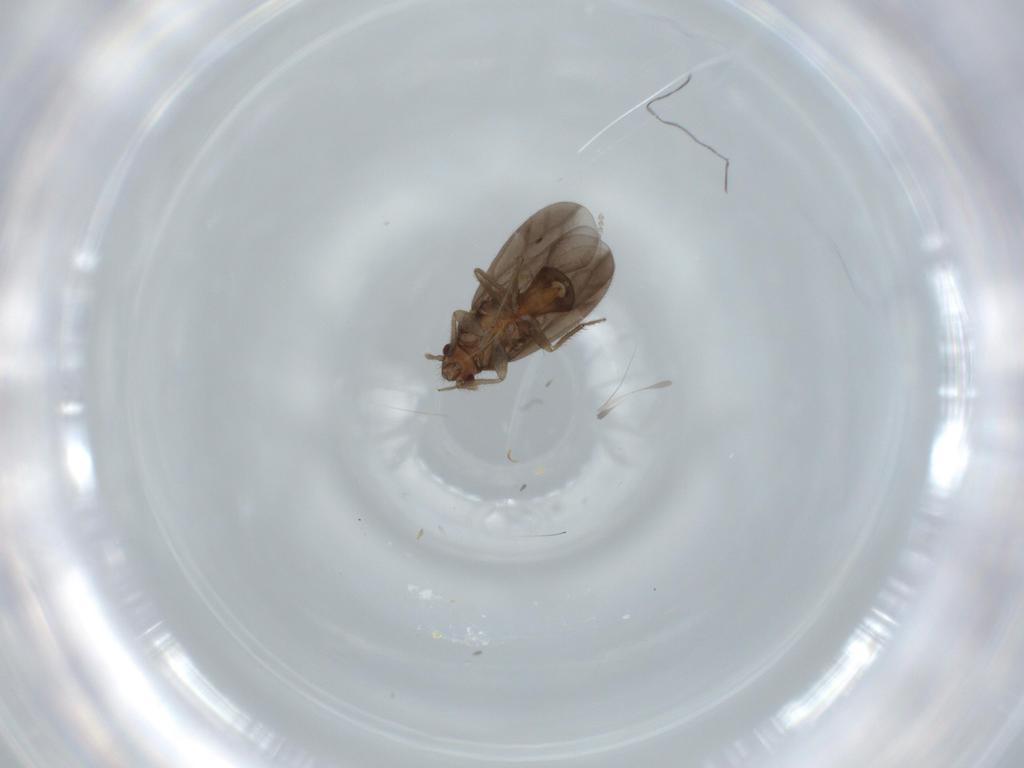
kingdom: Animalia
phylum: Arthropoda
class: Insecta
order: Hemiptera
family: Ceratocombidae
